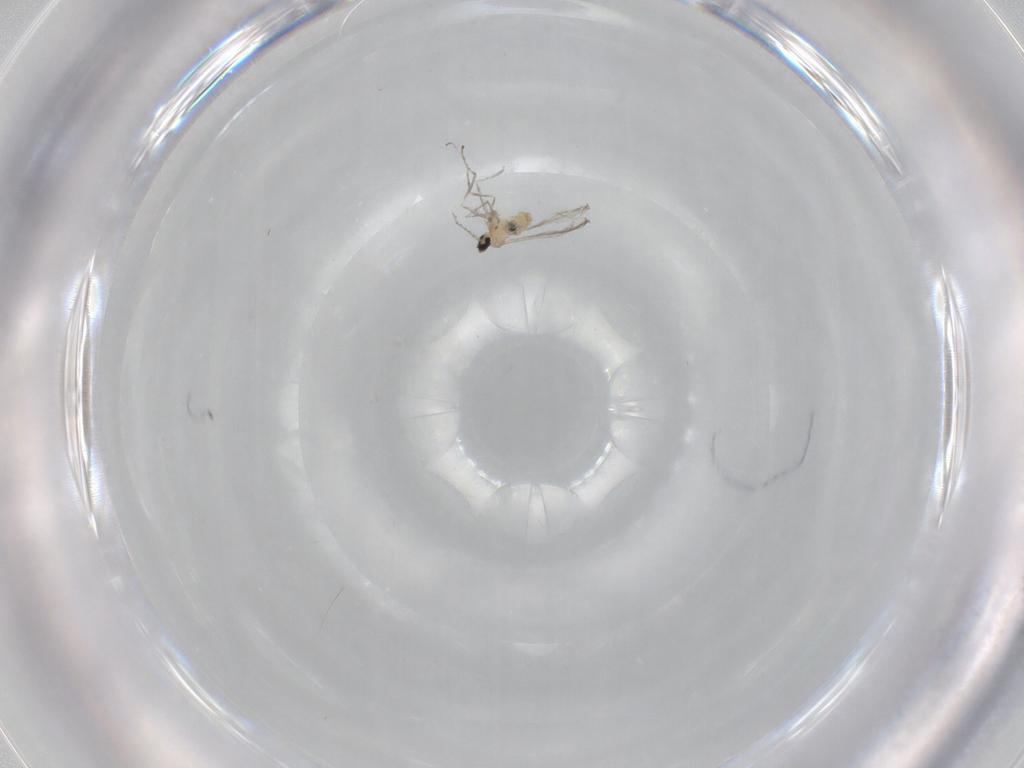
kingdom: Animalia
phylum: Arthropoda
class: Insecta
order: Diptera
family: Cecidomyiidae
